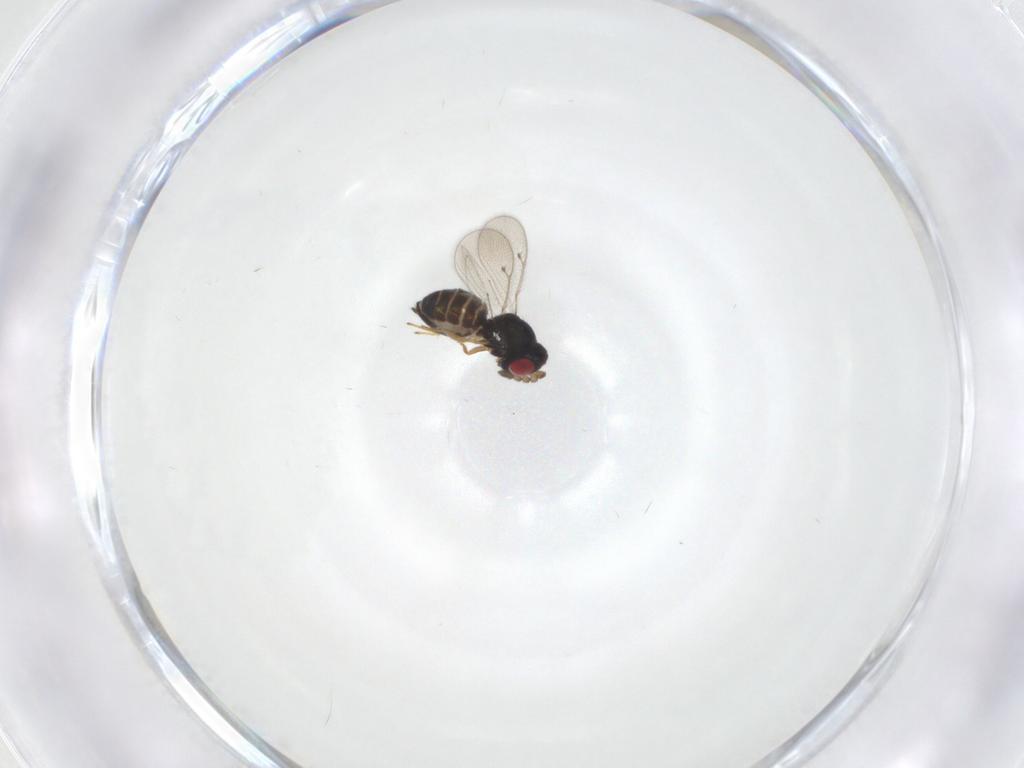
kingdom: Animalia
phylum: Arthropoda
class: Insecta
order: Hymenoptera
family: Eulophidae
